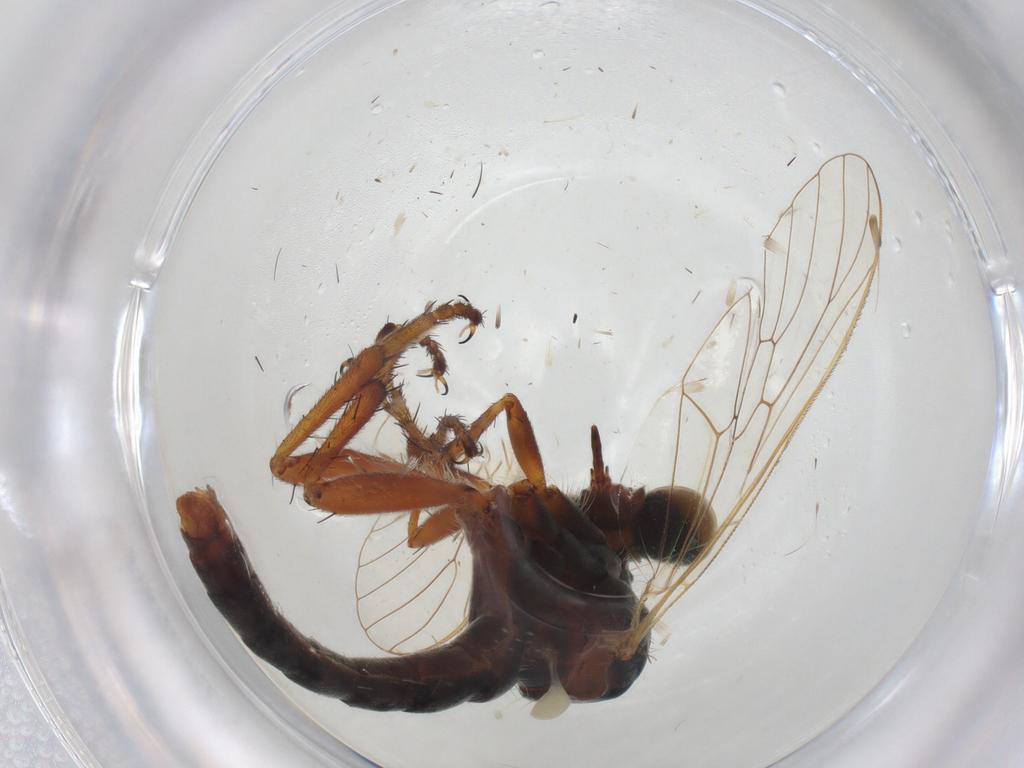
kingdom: Animalia
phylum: Arthropoda
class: Insecta
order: Diptera
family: Asilidae
